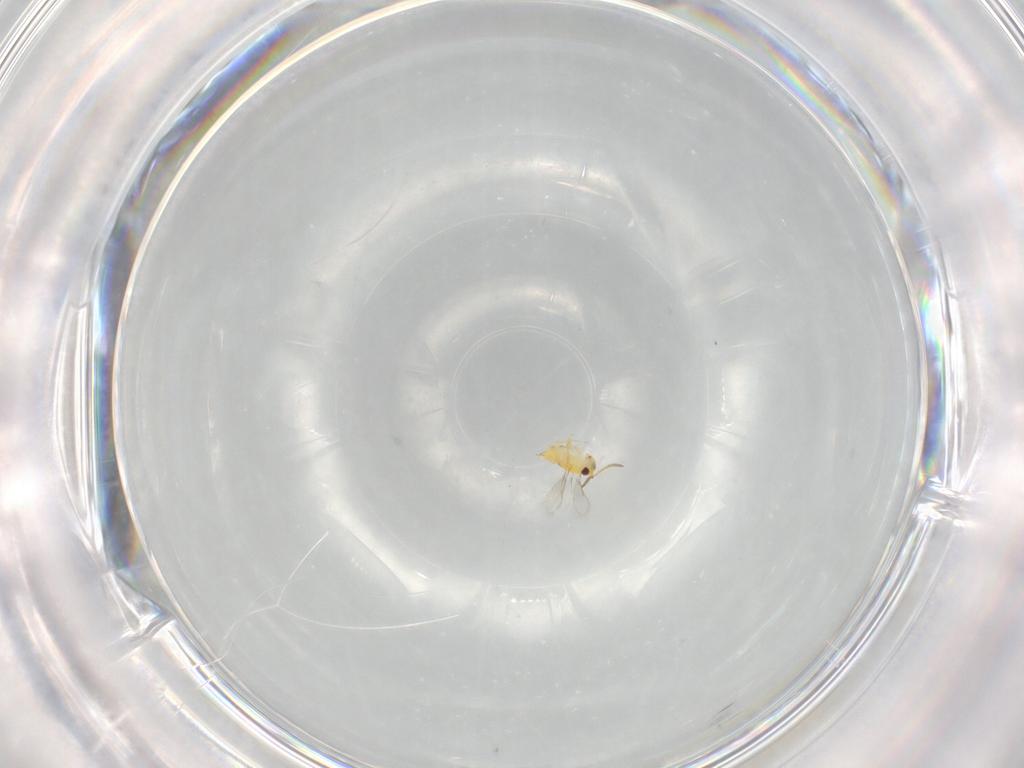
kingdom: Animalia
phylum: Arthropoda
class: Insecta
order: Hymenoptera
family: Aphelinidae
